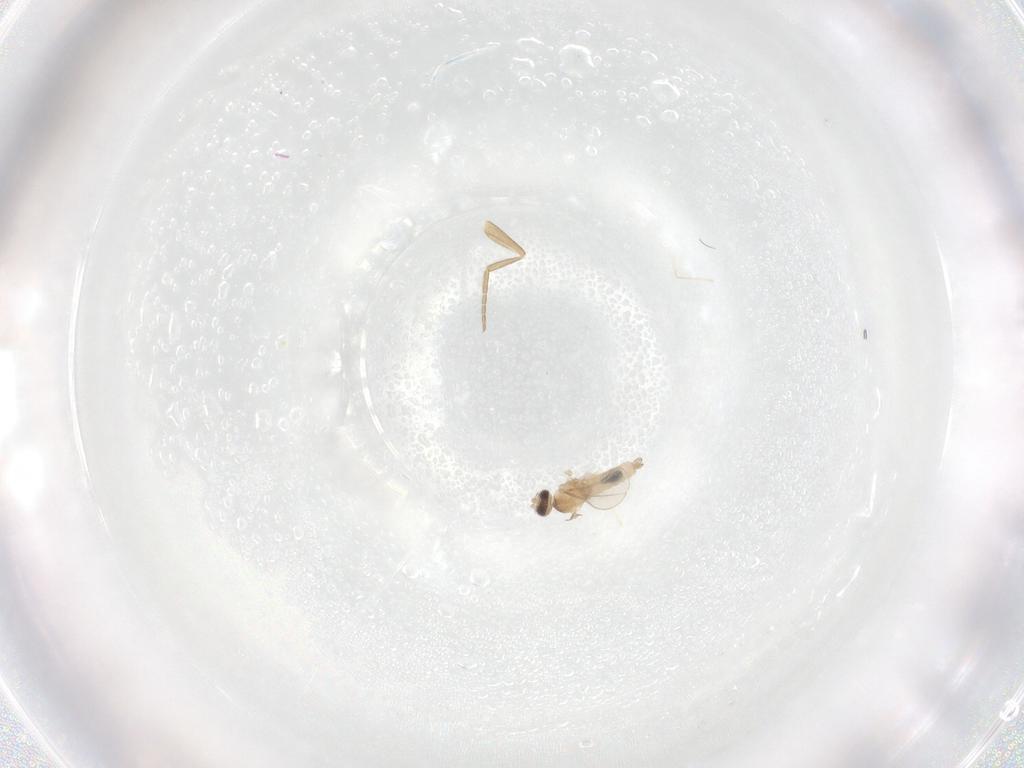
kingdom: Animalia
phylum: Arthropoda
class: Insecta
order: Diptera
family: Cecidomyiidae
